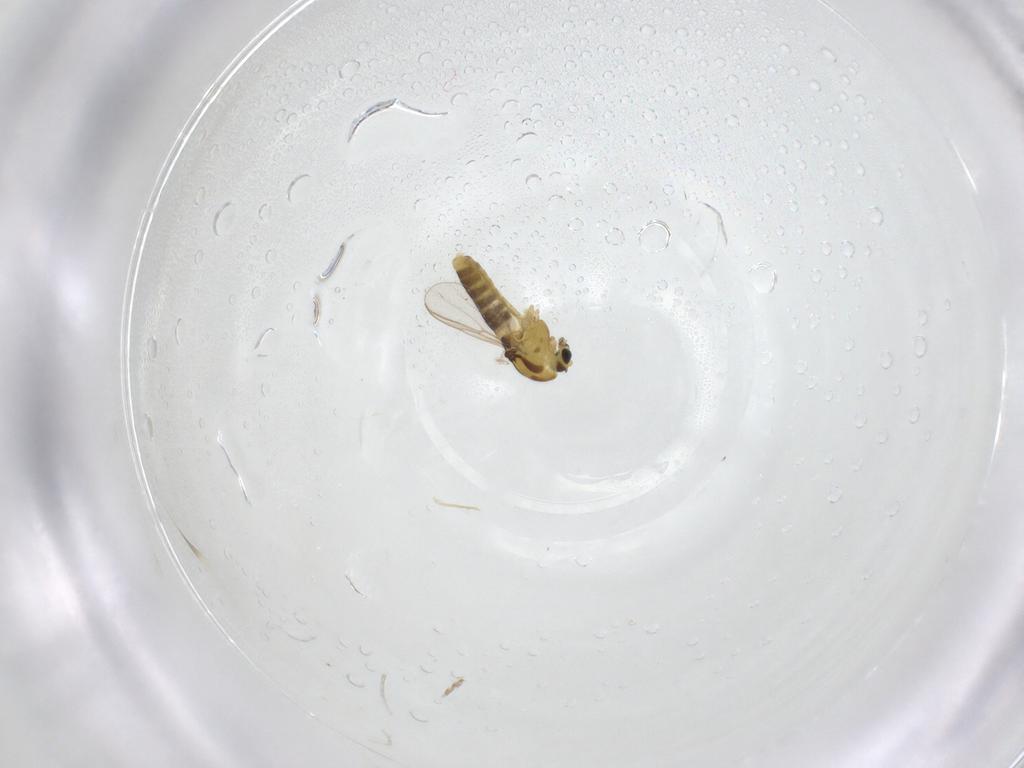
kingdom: Animalia
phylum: Arthropoda
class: Insecta
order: Diptera
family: Chironomidae
